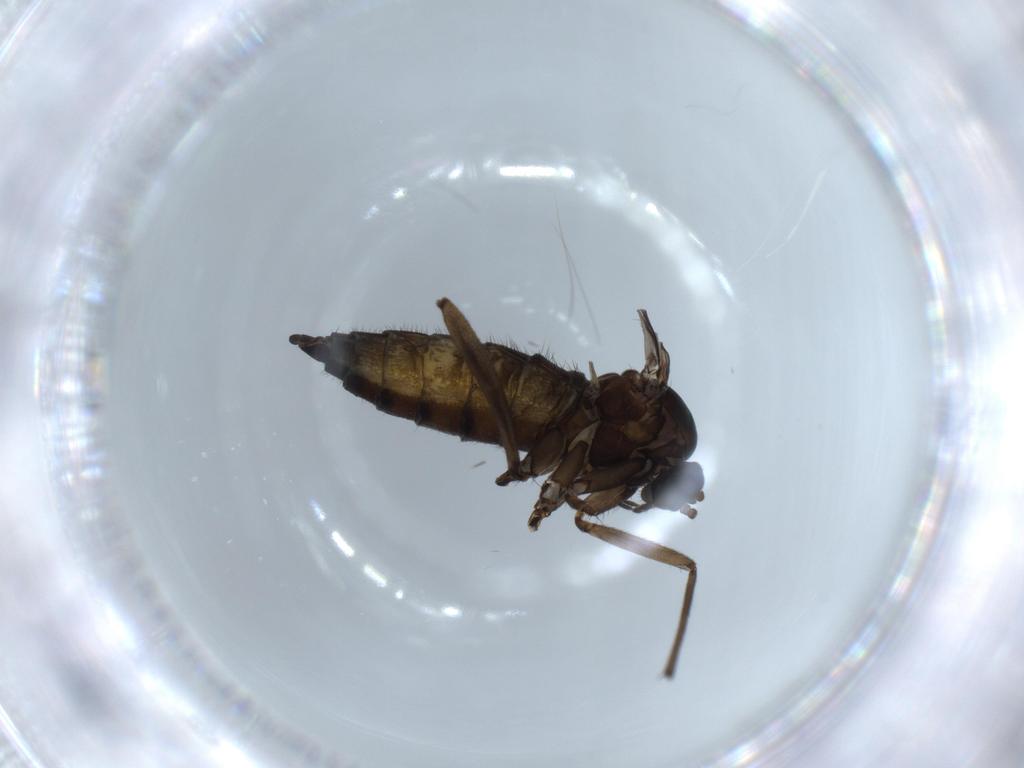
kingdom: Animalia
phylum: Arthropoda
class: Insecta
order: Diptera
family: Sciaridae
